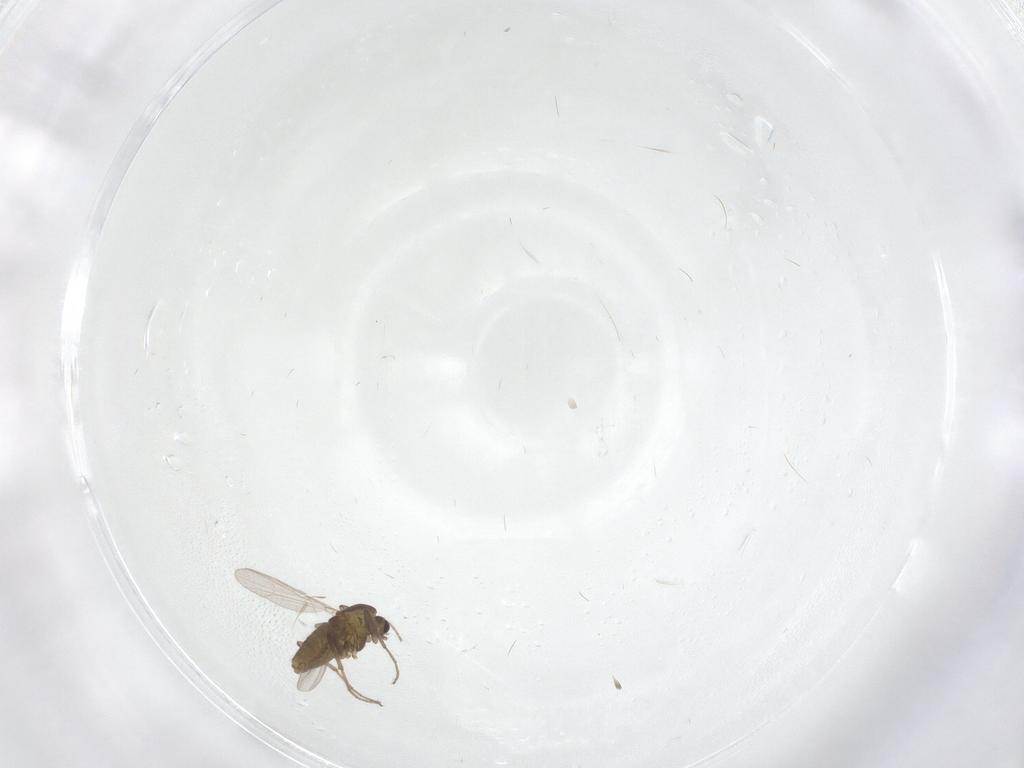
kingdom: Animalia
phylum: Arthropoda
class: Insecta
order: Diptera
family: Chironomidae
